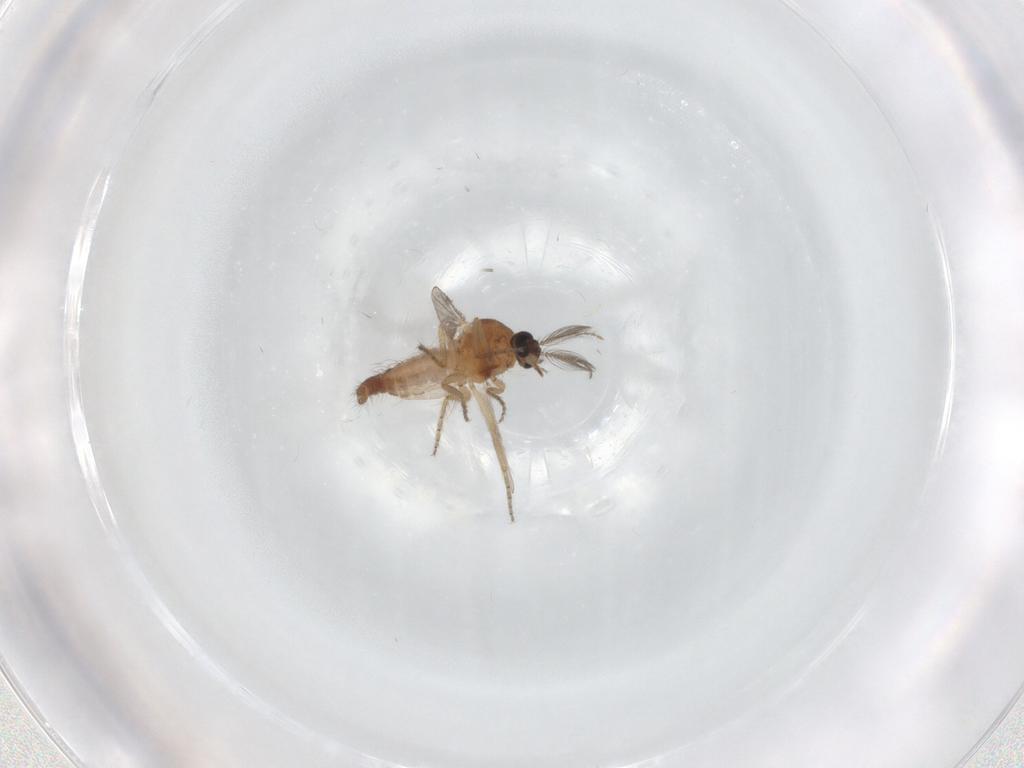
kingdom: Animalia
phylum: Arthropoda
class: Insecta
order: Diptera
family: Ceratopogonidae
